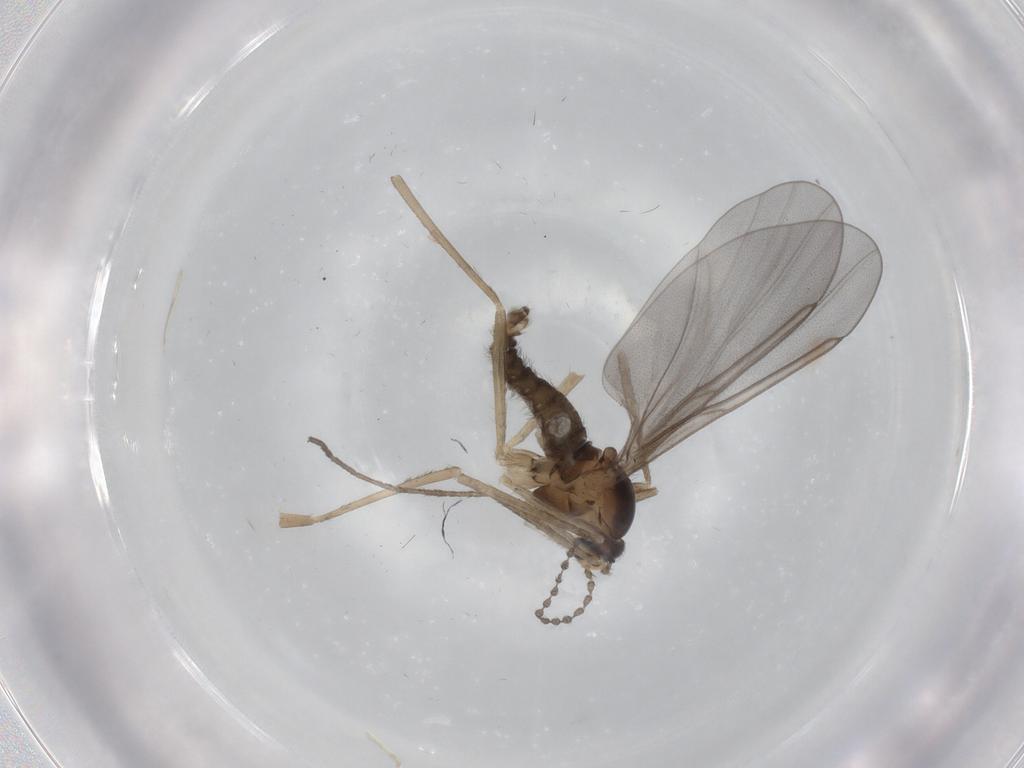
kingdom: Animalia
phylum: Arthropoda
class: Insecta
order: Diptera
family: Cecidomyiidae
